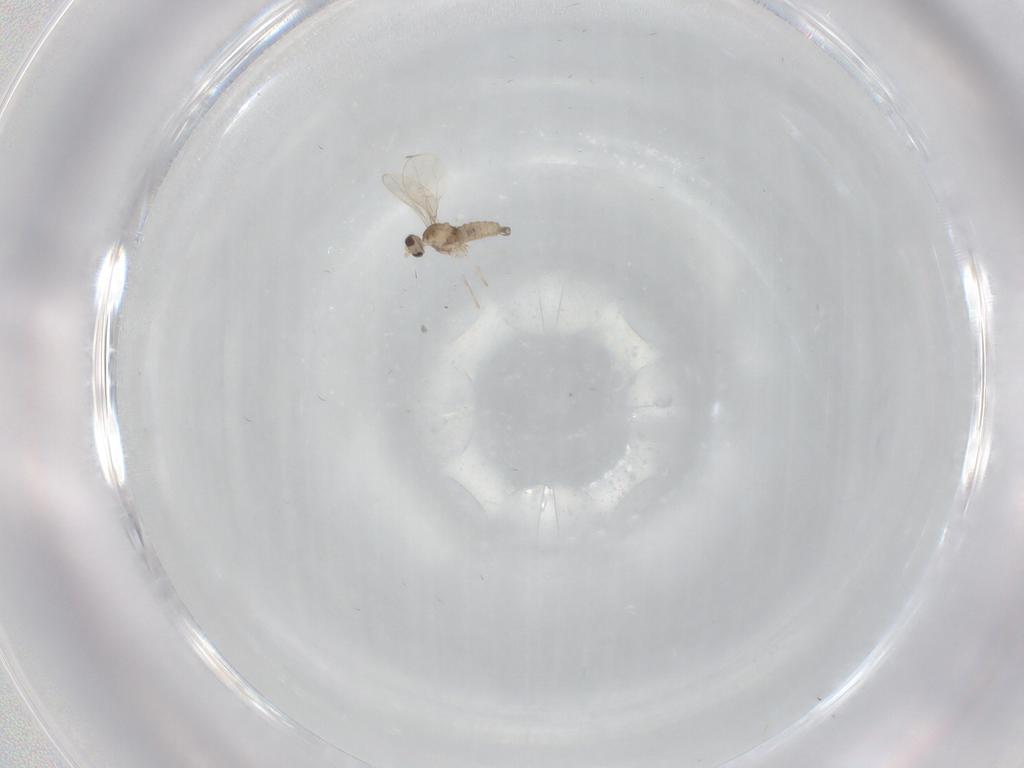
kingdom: Animalia
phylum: Arthropoda
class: Insecta
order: Diptera
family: Cecidomyiidae
